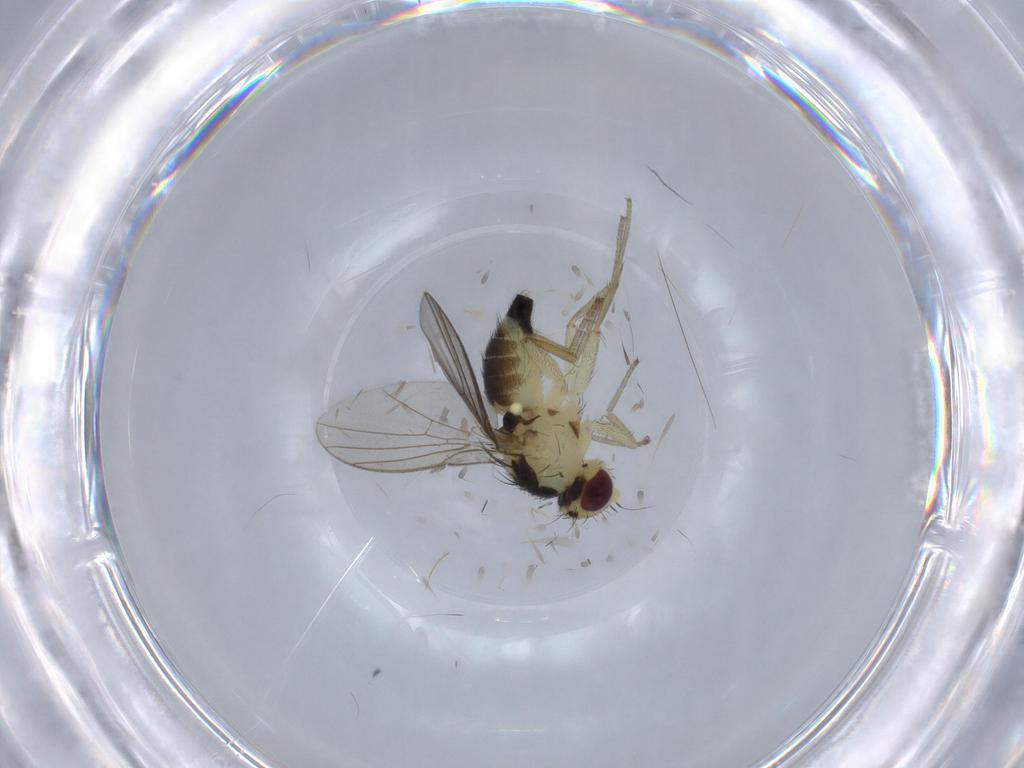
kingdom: Animalia
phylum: Arthropoda
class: Insecta
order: Diptera
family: Agromyzidae
